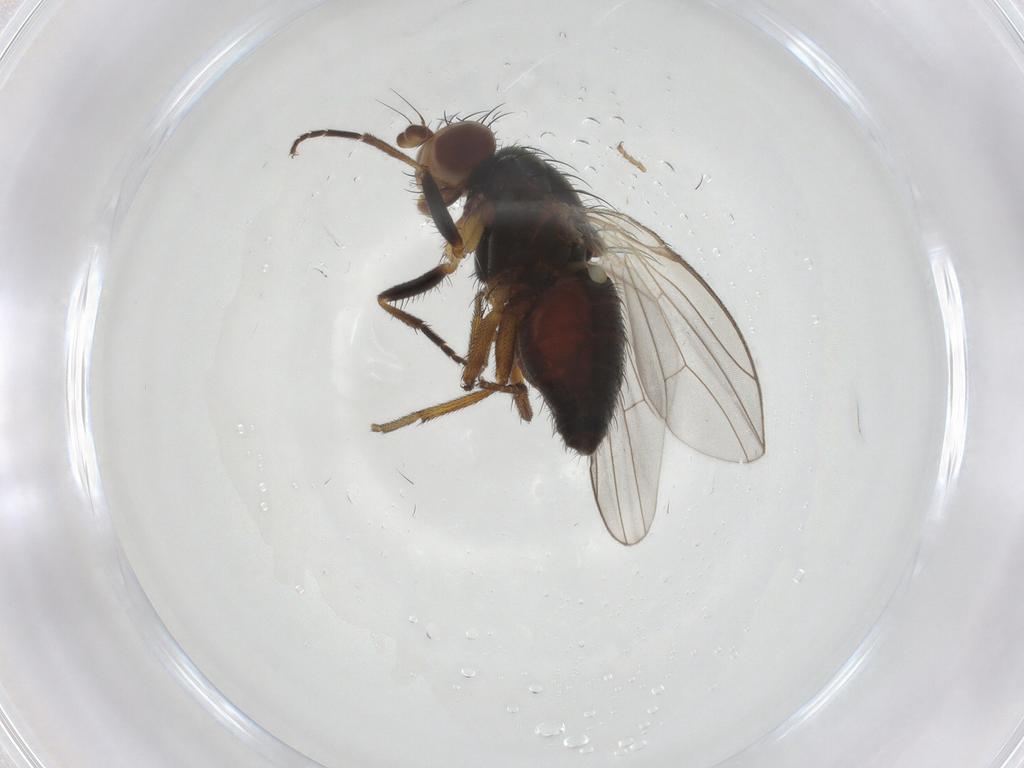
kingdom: Animalia
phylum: Arthropoda
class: Insecta
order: Diptera
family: Heleomyzidae
